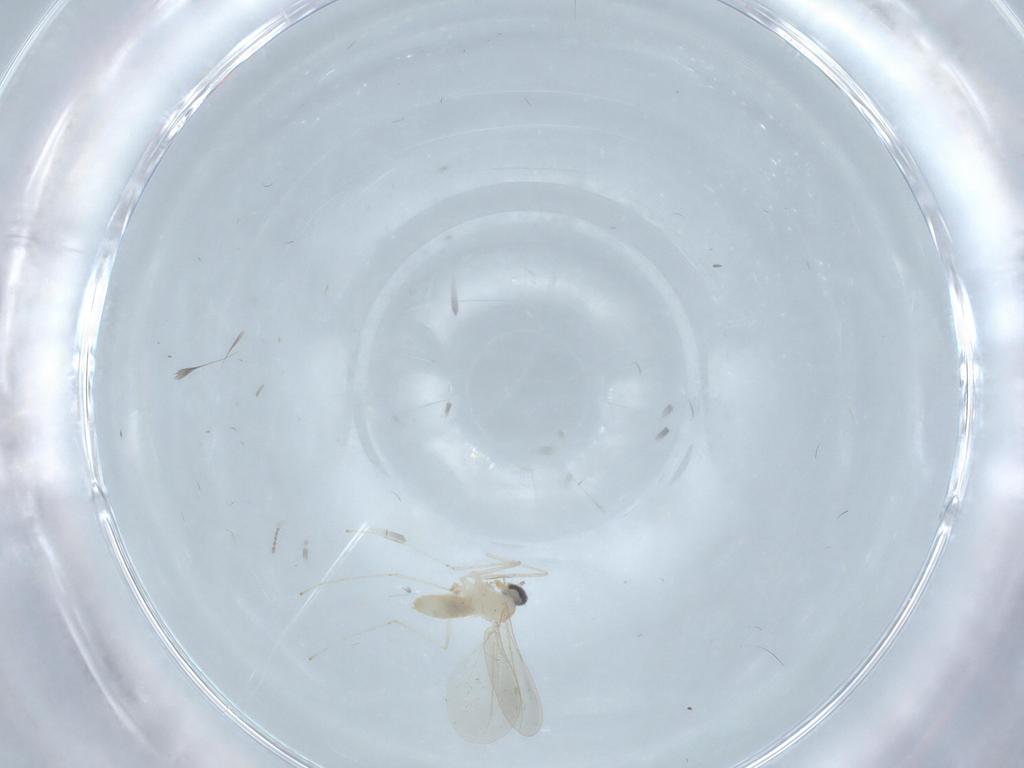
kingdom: Animalia
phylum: Arthropoda
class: Insecta
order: Diptera
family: Cecidomyiidae
